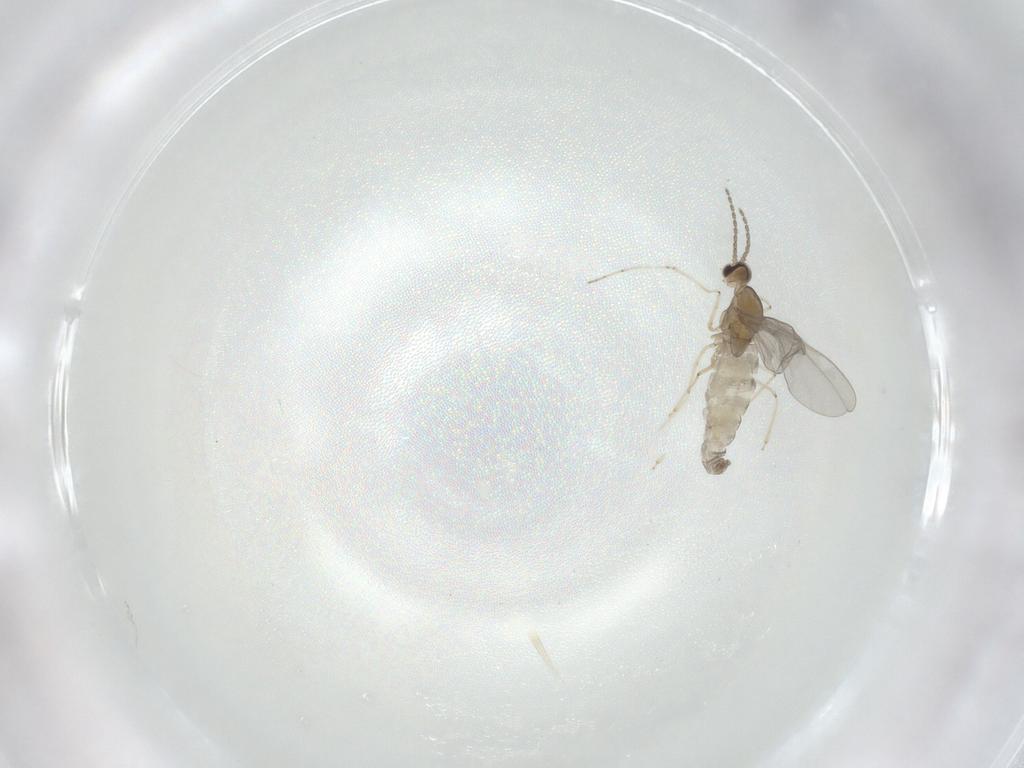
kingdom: Animalia
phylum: Arthropoda
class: Insecta
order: Diptera
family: Cecidomyiidae
